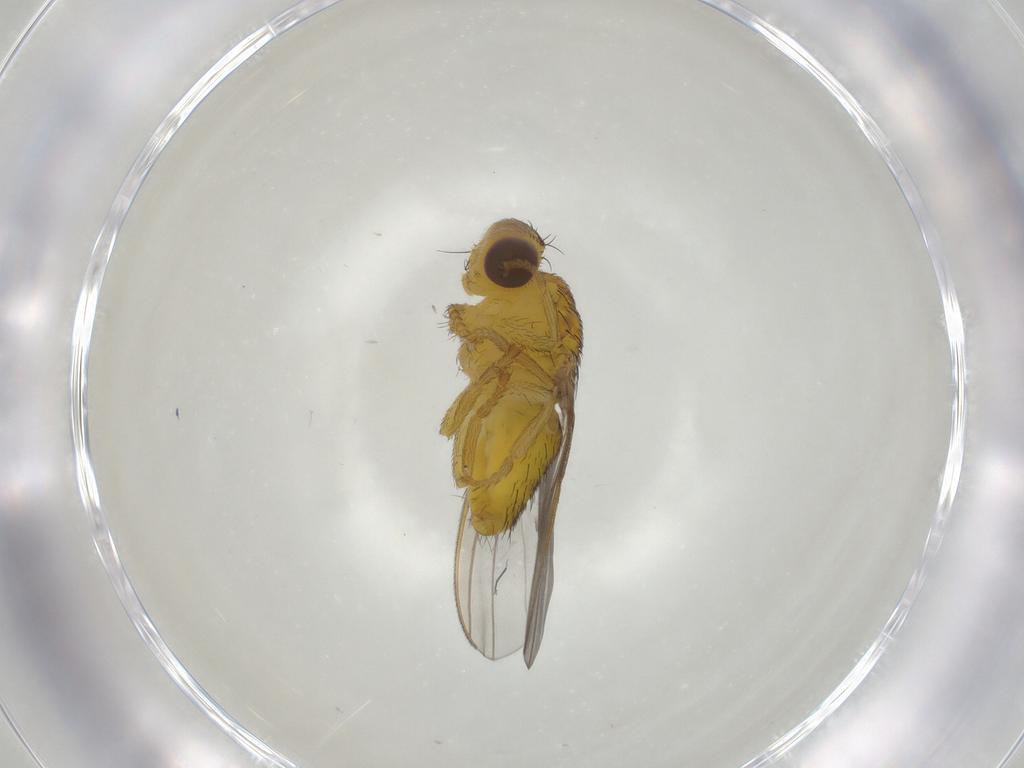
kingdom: Animalia
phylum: Arthropoda
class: Insecta
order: Diptera
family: Fergusoninidae
